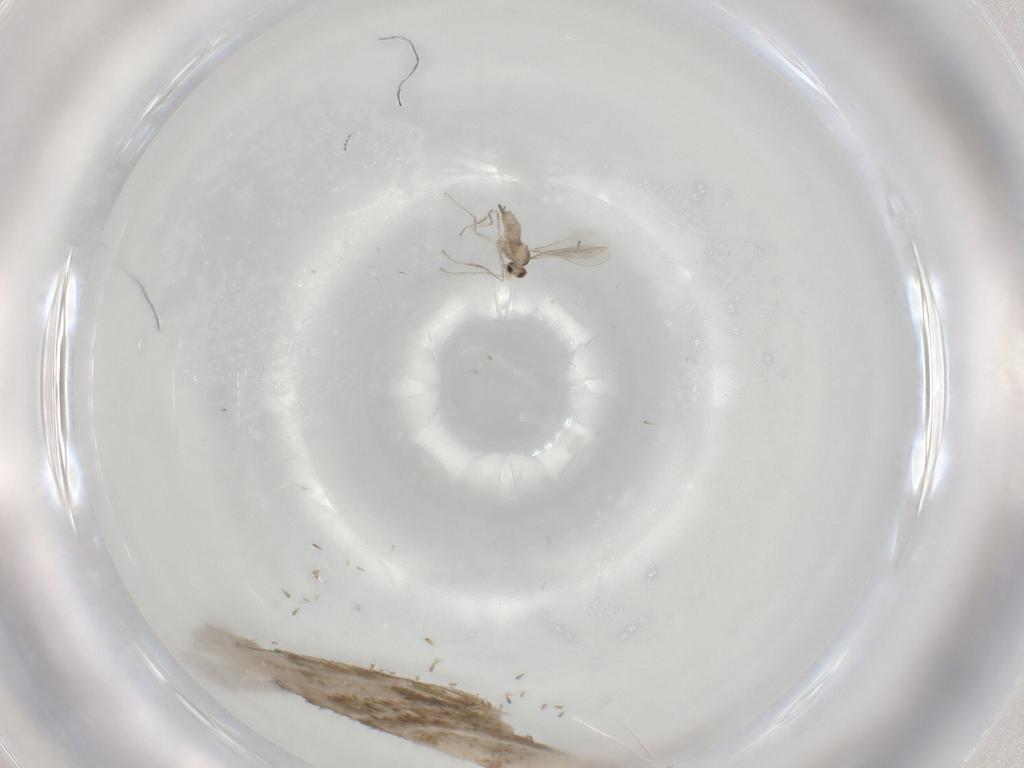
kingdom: Animalia
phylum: Arthropoda
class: Insecta
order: Diptera
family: Cecidomyiidae
